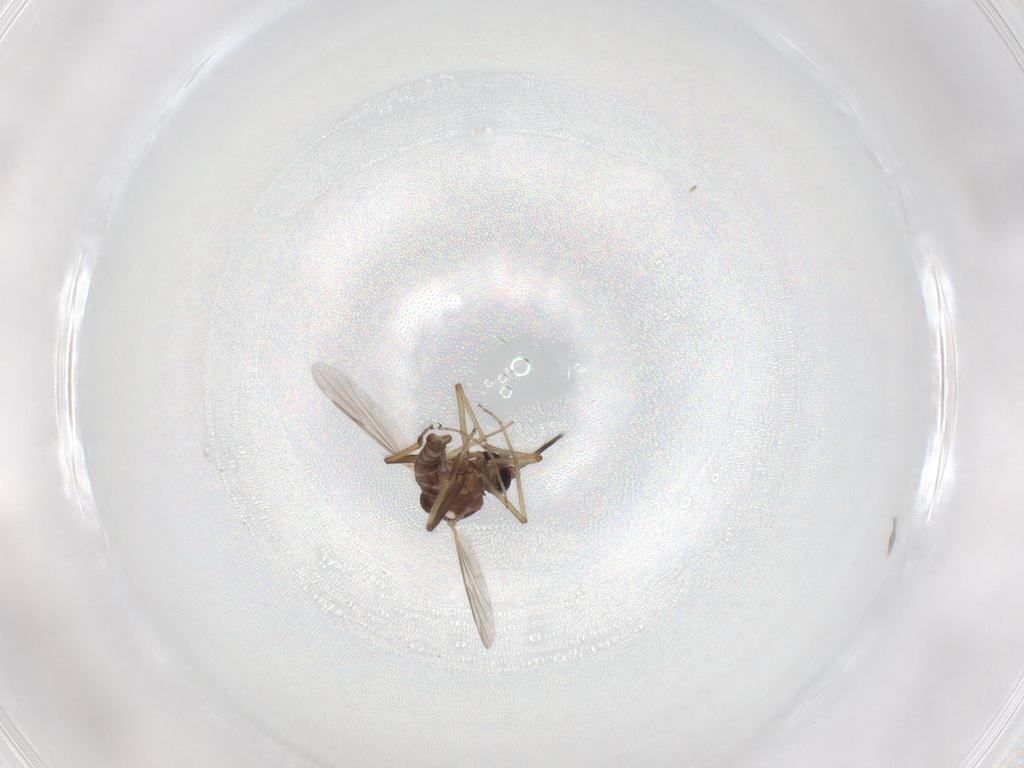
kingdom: Animalia
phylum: Arthropoda
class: Insecta
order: Diptera
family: Ceratopogonidae
